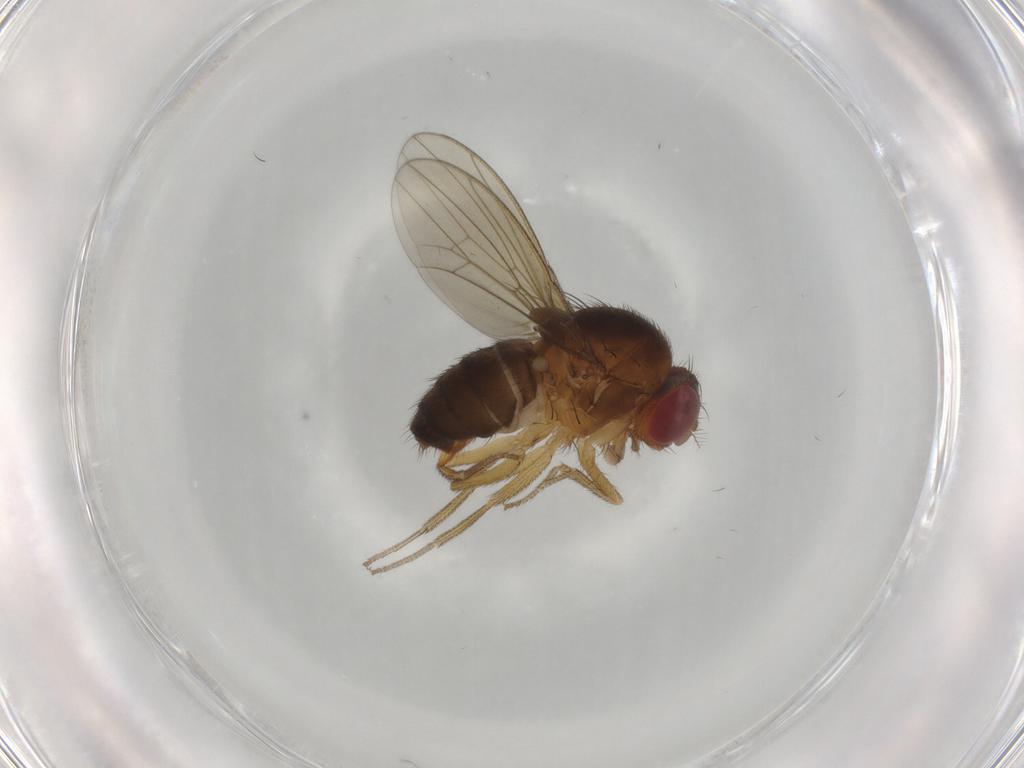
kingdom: Animalia
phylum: Arthropoda
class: Insecta
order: Diptera
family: Drosophilidae
